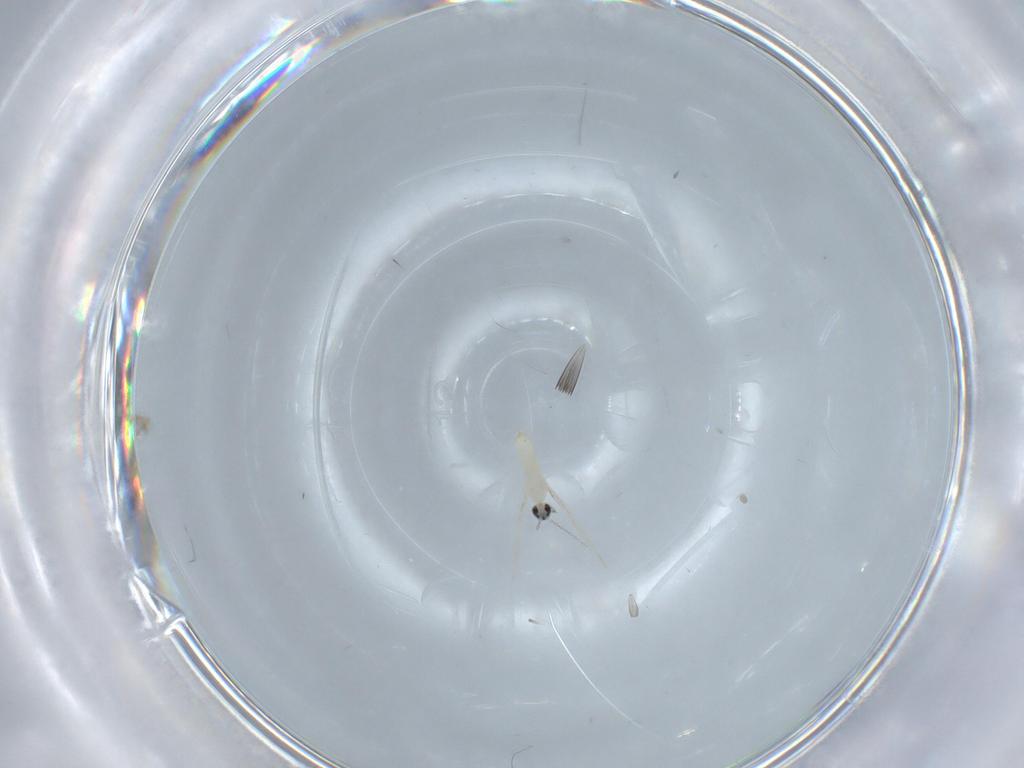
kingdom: Animalia
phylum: Arthropoda
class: Insecta
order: Diptera
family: Cecidomyiidae
